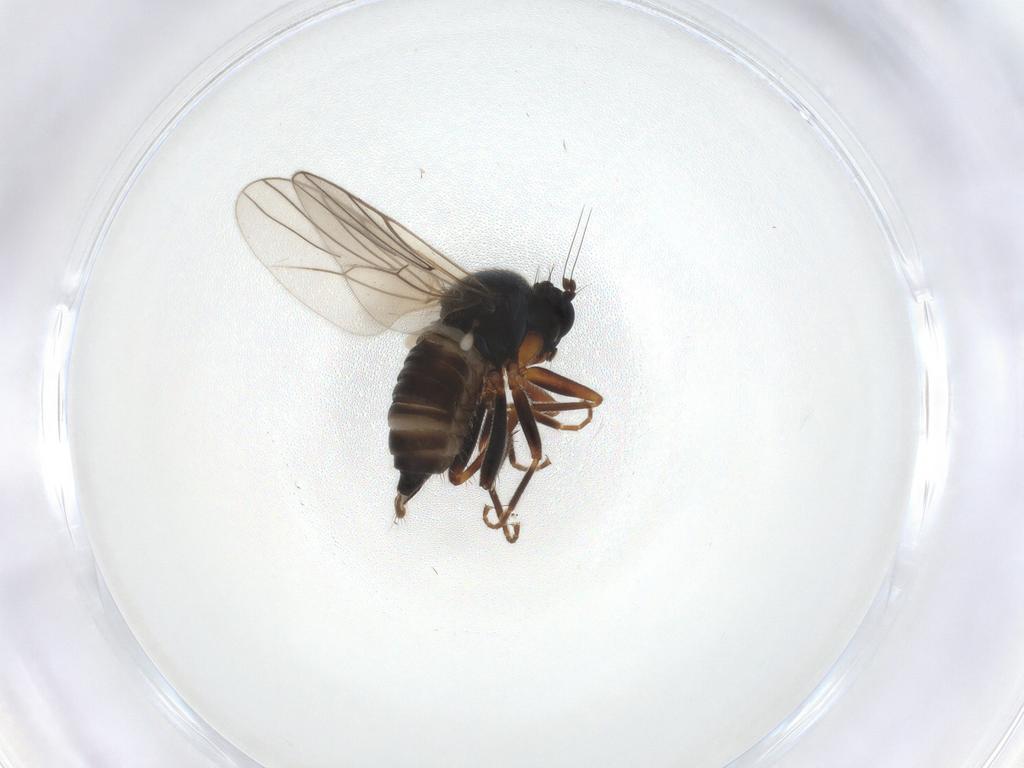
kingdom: Animalia
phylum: Arthropoda
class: Insecta
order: Diptera
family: Hybotidae
